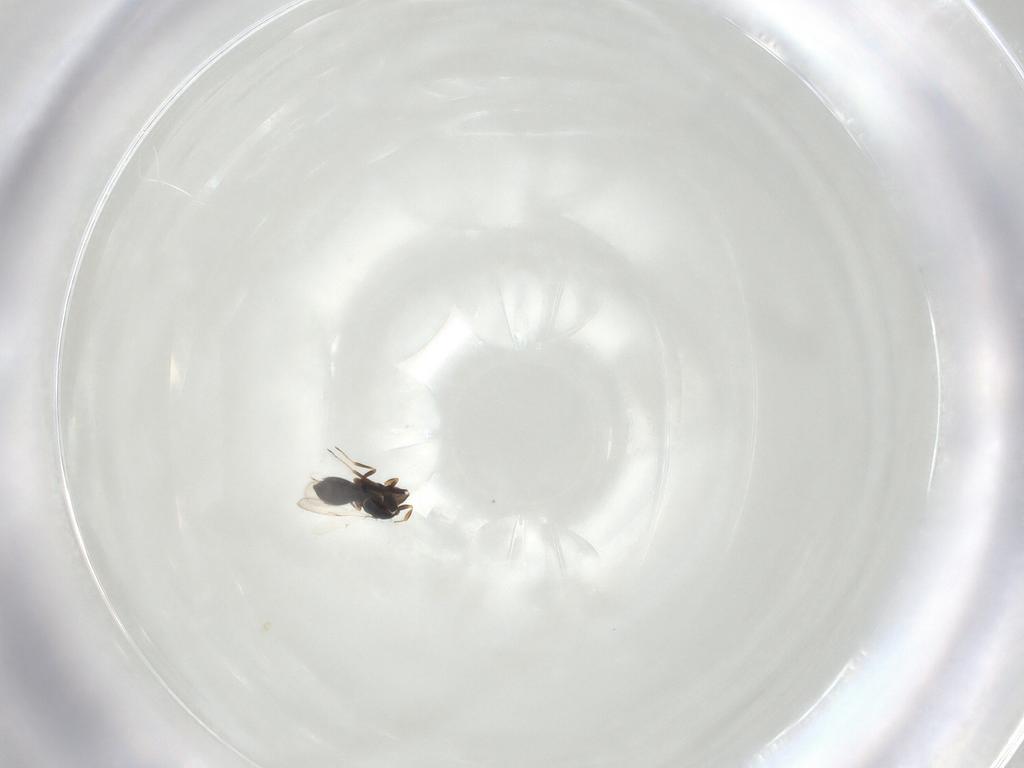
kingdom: Animalia
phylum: Arthropoda
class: Insecta
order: Hymenoptera
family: Scelionidae
